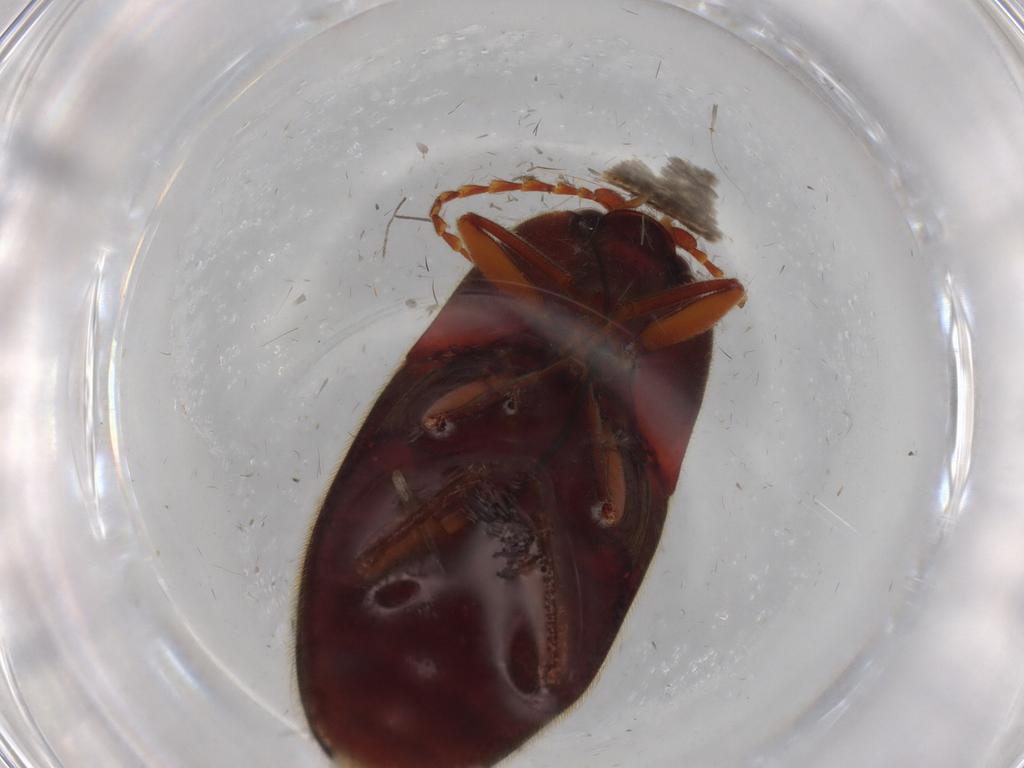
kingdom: Animalia
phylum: Arthropoda
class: Insecta
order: Coleoptera
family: Elateridae
